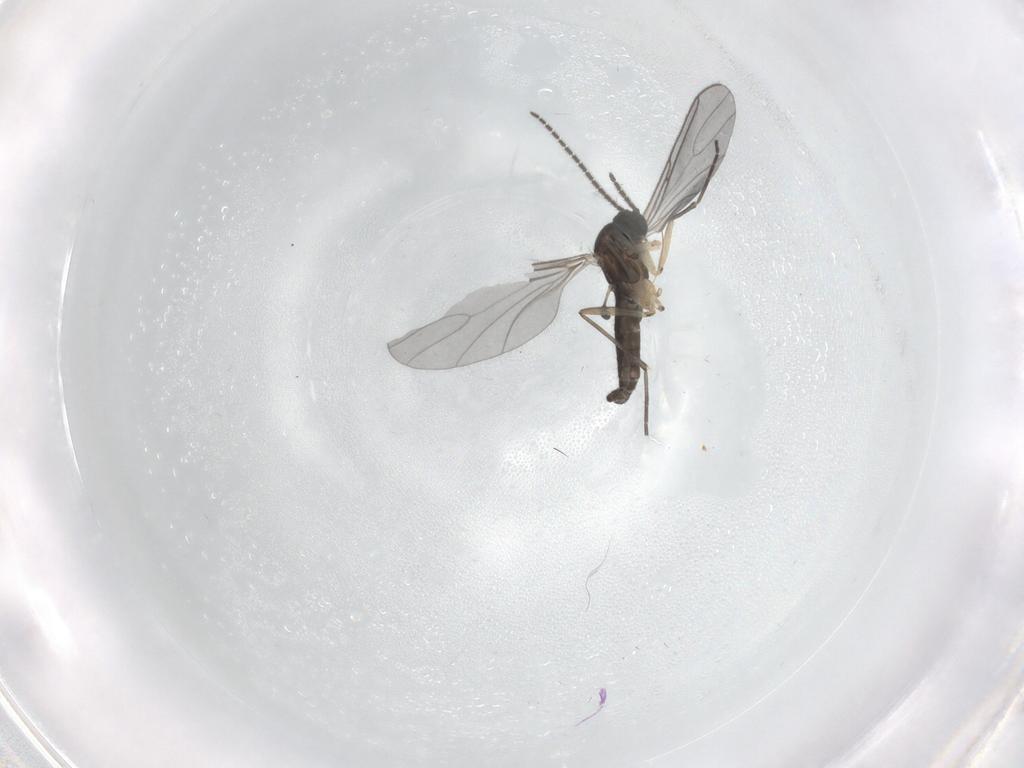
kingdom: Animalia
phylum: Arthropoda
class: Insecta
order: Diptera
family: Sciaridae
